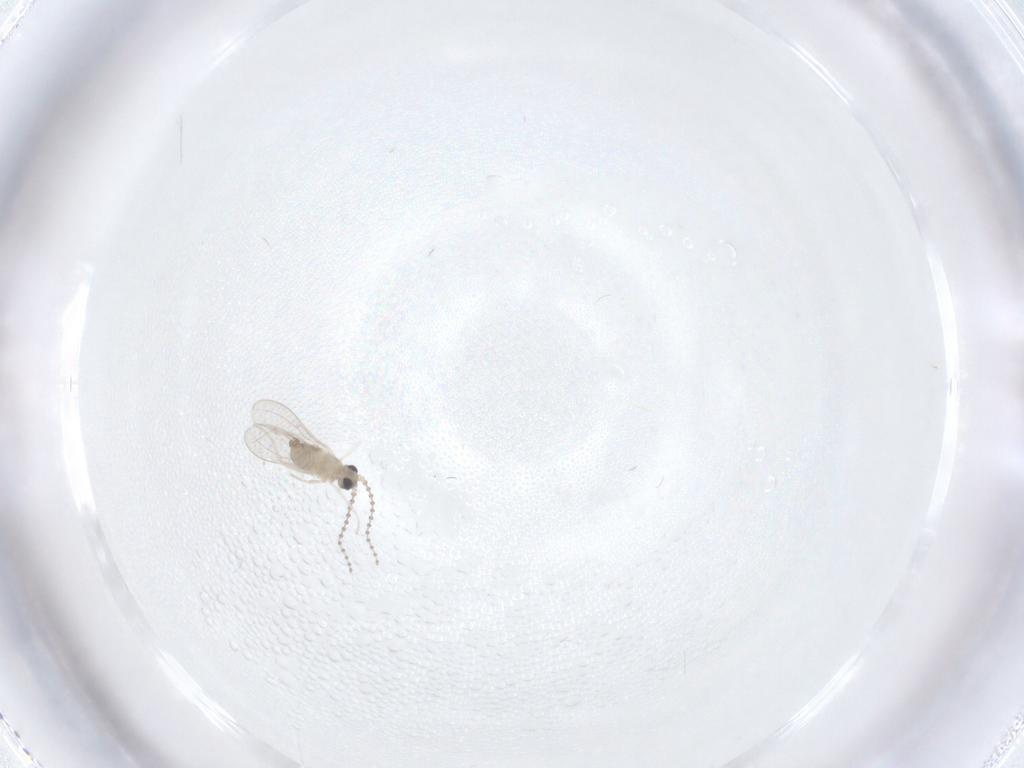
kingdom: Animalia
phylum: Arthropoda
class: Insecta
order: Diptera
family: Cecidomyiidae
